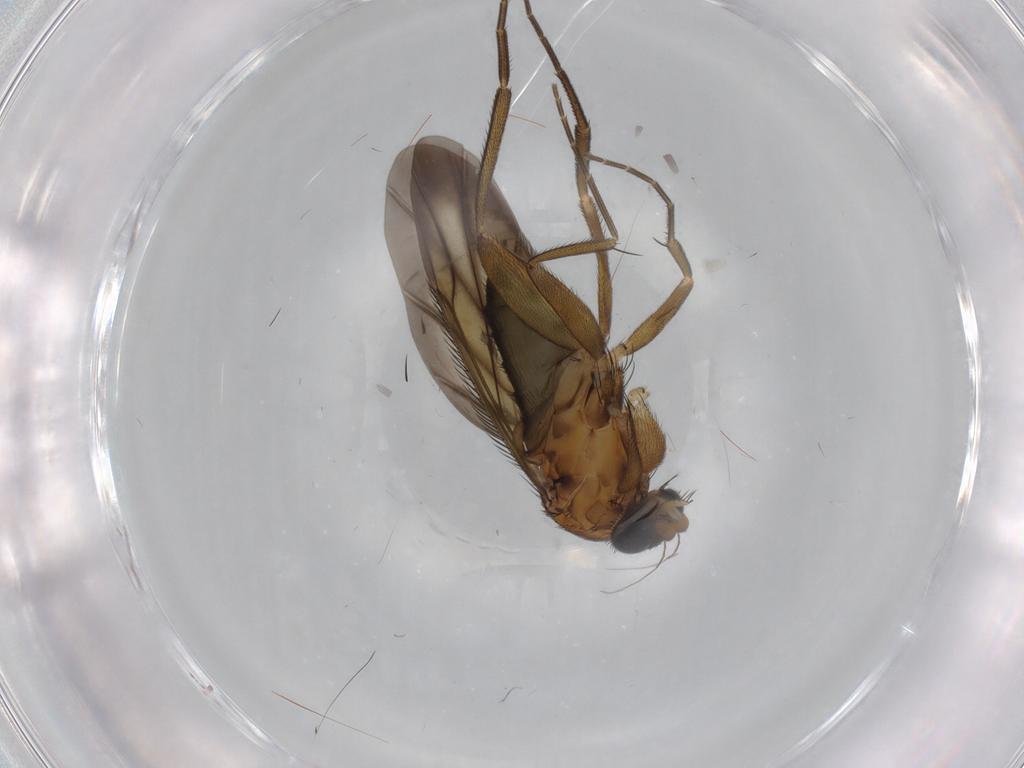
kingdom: Animalia
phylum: Arthropoda
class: Insecta
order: Diptera
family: Phoridae
